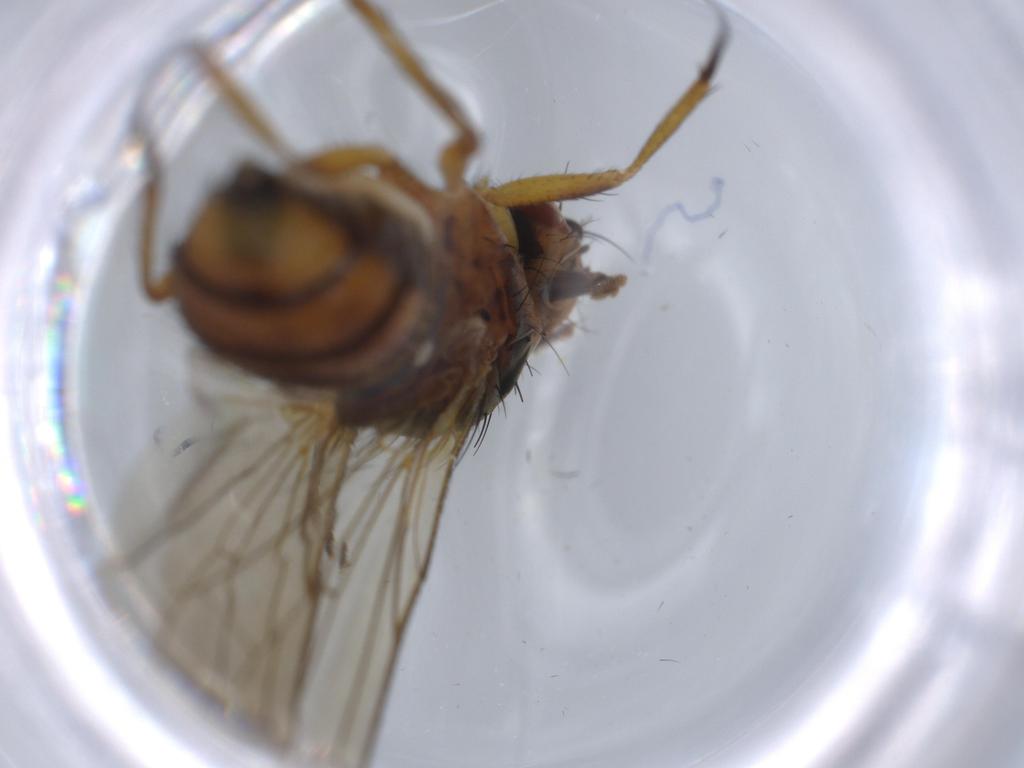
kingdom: Animalia
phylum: Arthropoda
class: Insecta
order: Diptera
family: Anthomyiidae
